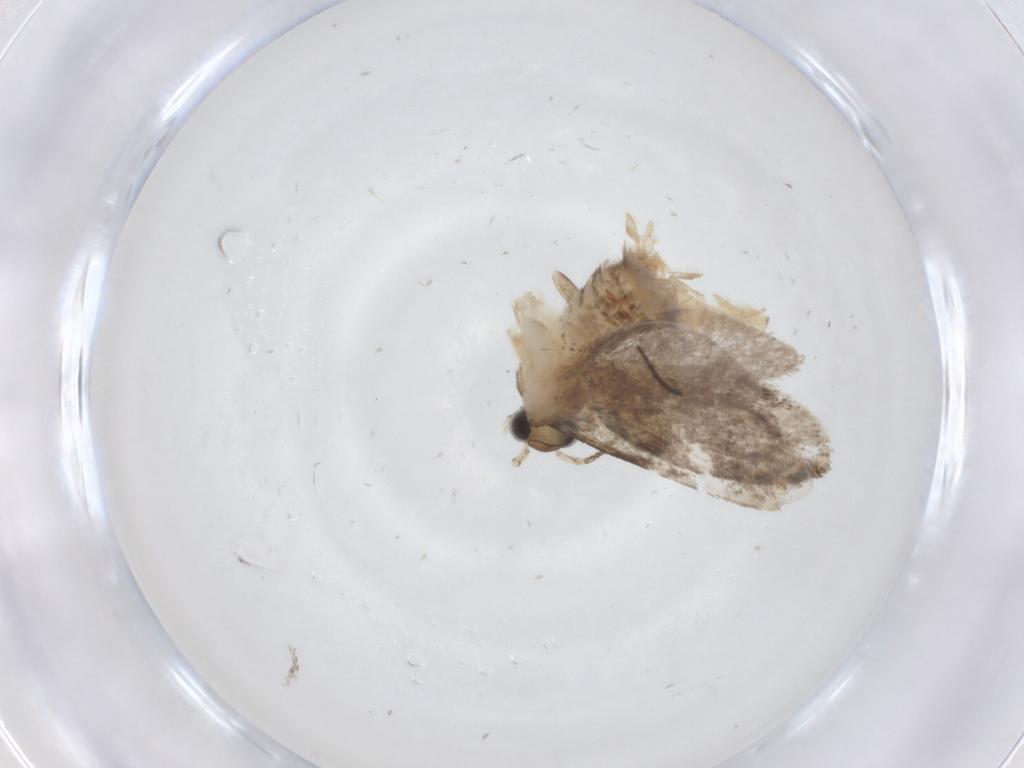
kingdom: Animalia
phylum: Arthropoda
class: Insecta
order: Lepidoptera
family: Tineidae
